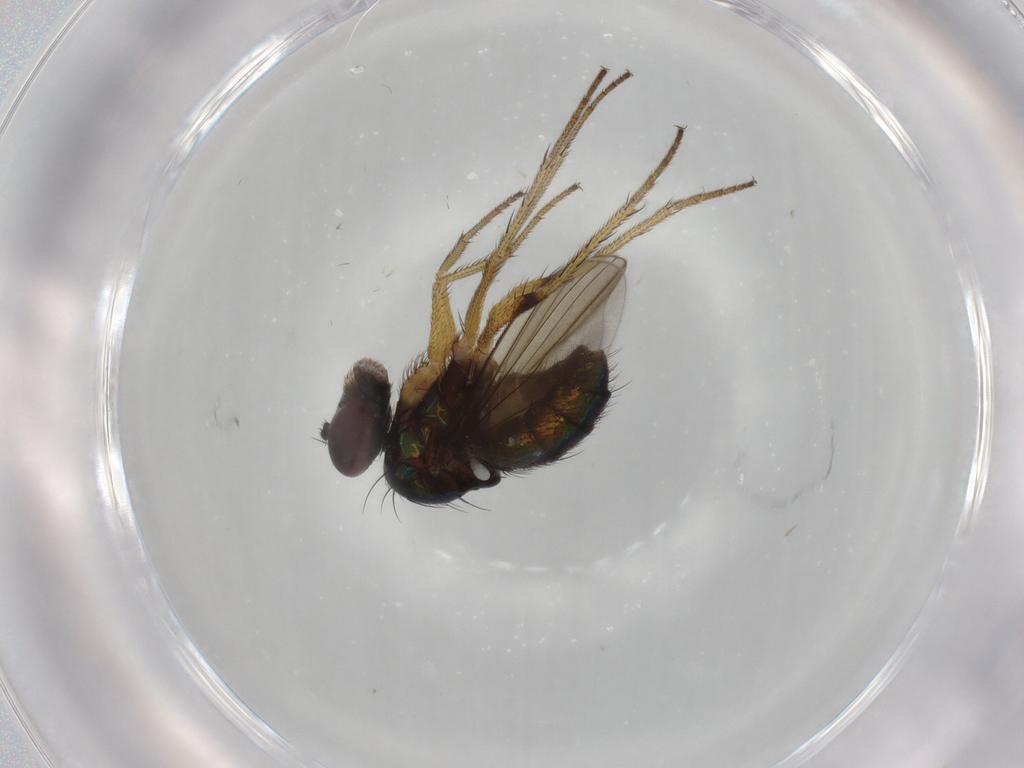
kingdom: Animalia
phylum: Arthropoda
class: Insecta
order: Diptera
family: Dolichopodidae
